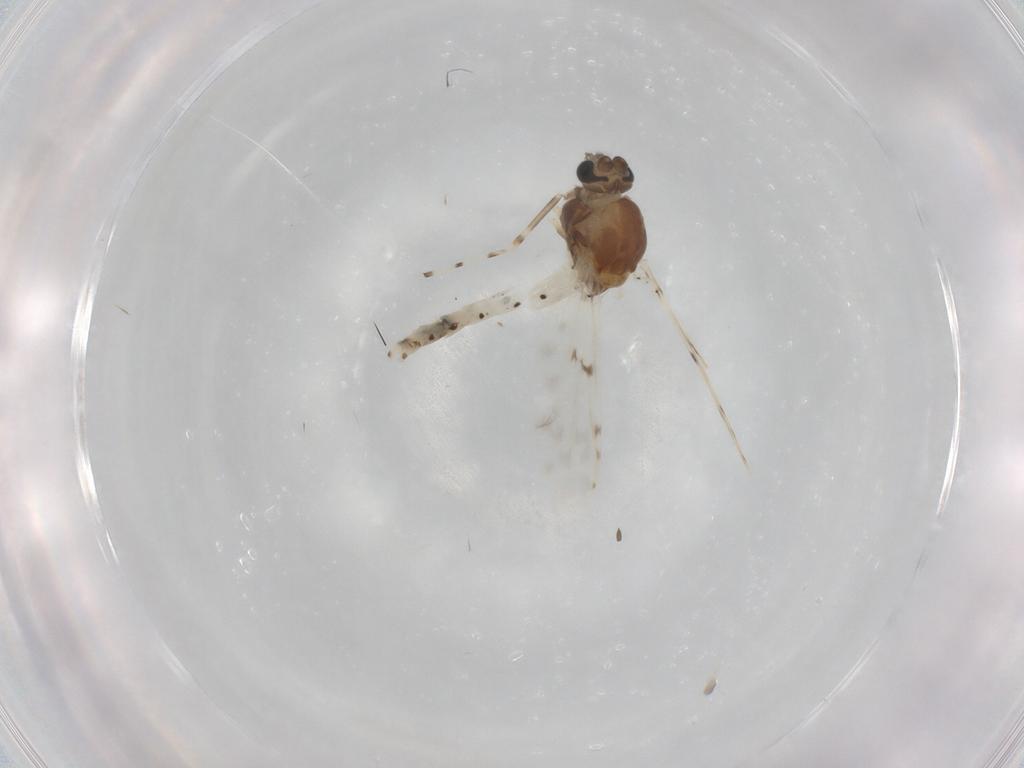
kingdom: Animalia
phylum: Arthropoda
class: Insecta
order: Diptera
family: Chironomidae
